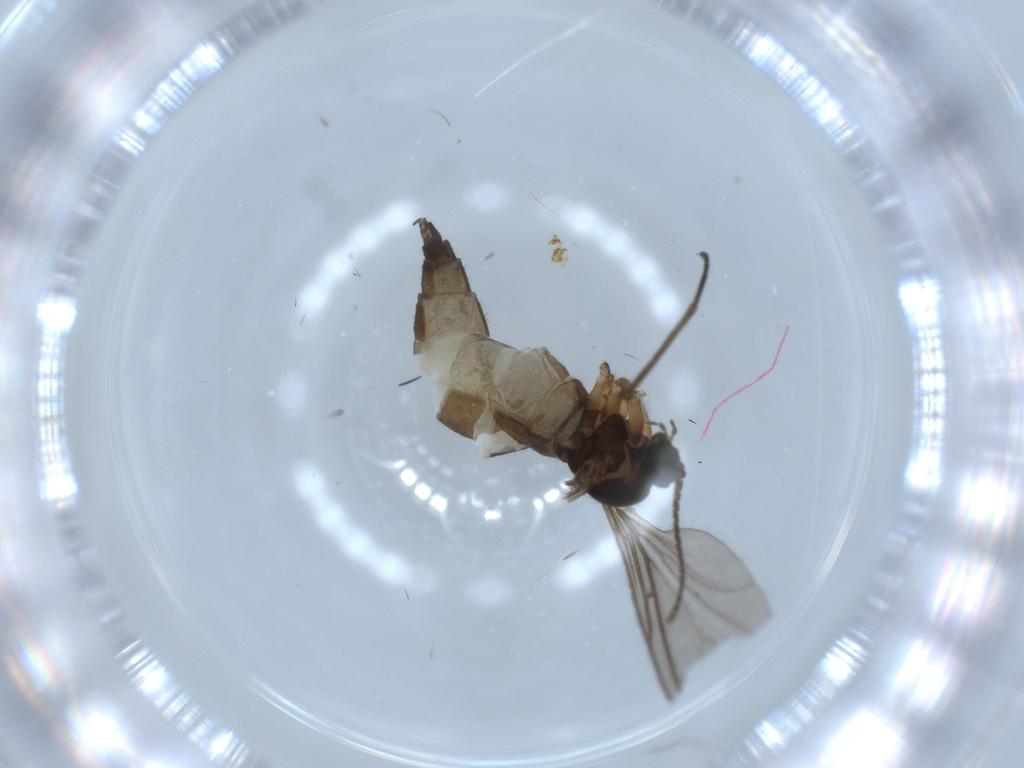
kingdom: Animalia
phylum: Arthropoda
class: Insecta
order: Diptera
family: Sciaridae
